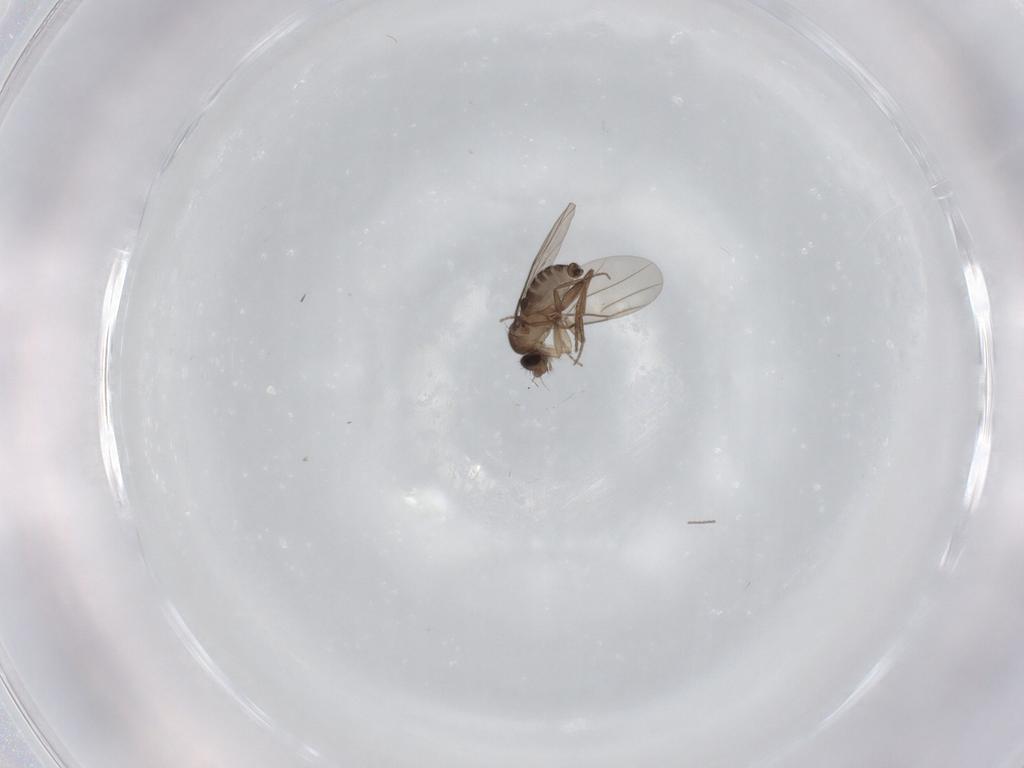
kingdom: Animalia
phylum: Arthropoda
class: Insecta
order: Diptera
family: Phoridae
